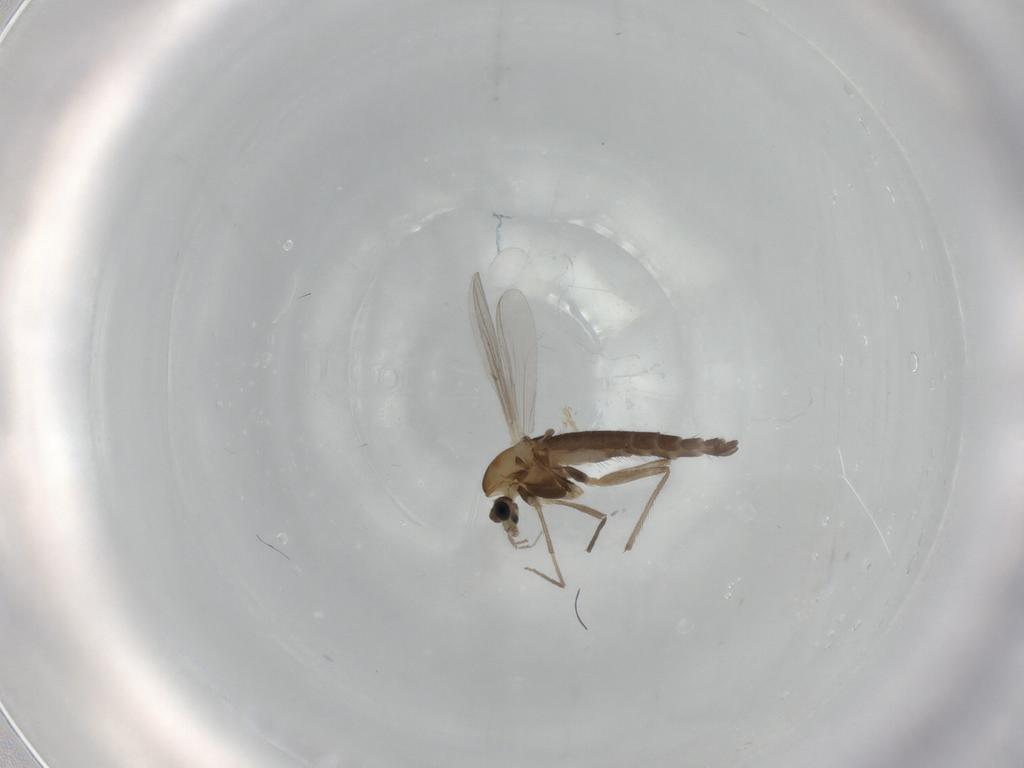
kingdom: Animalia
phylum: Arthropoda
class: Insecta
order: Diptera
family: Chironomidae
